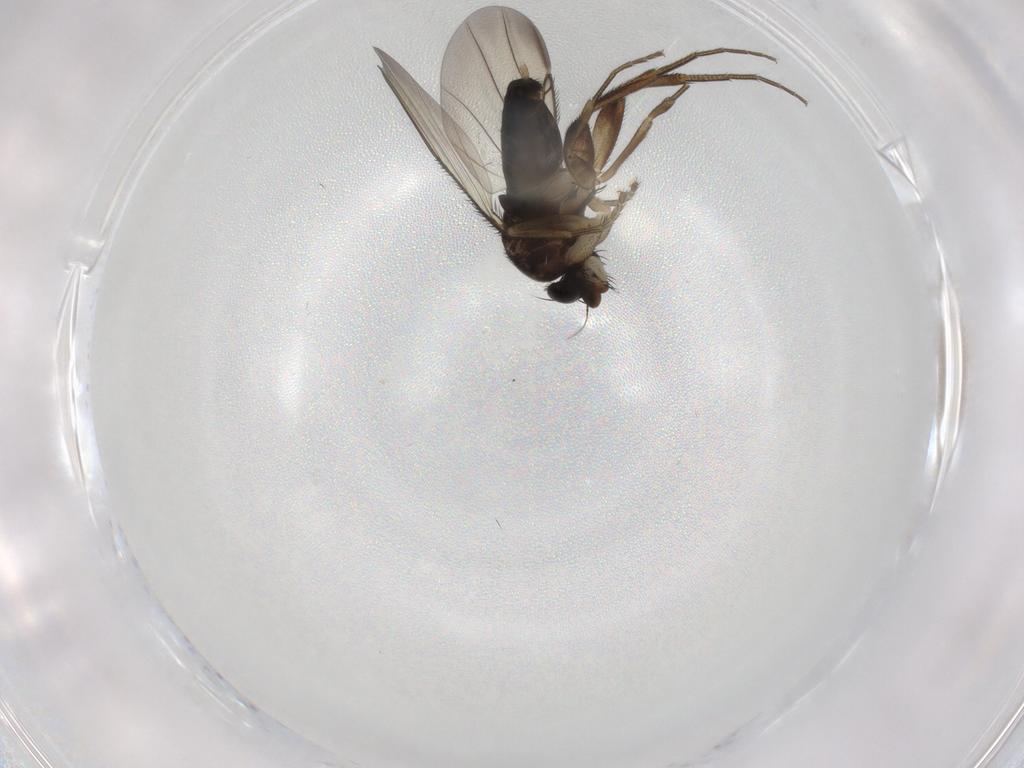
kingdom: Animalia
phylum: Arthropoda
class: Insecta
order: Diptera
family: Phoridae
